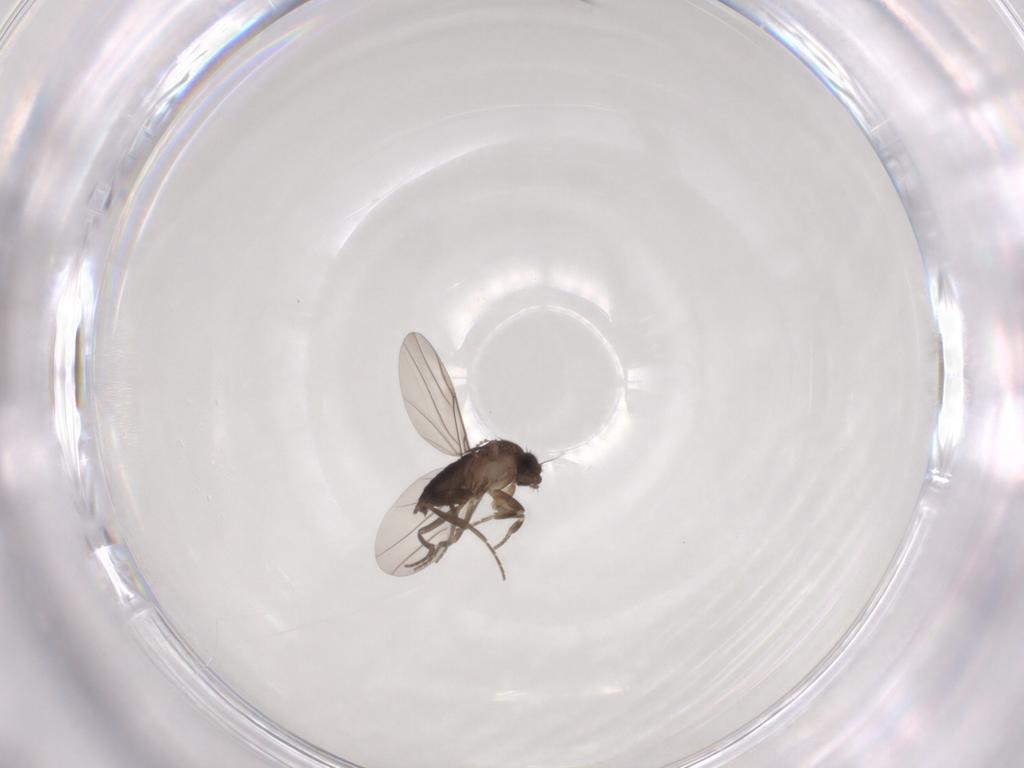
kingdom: Animalia
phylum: Arthropoda
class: Insecta
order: Diptera
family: Cecidomyiidae
